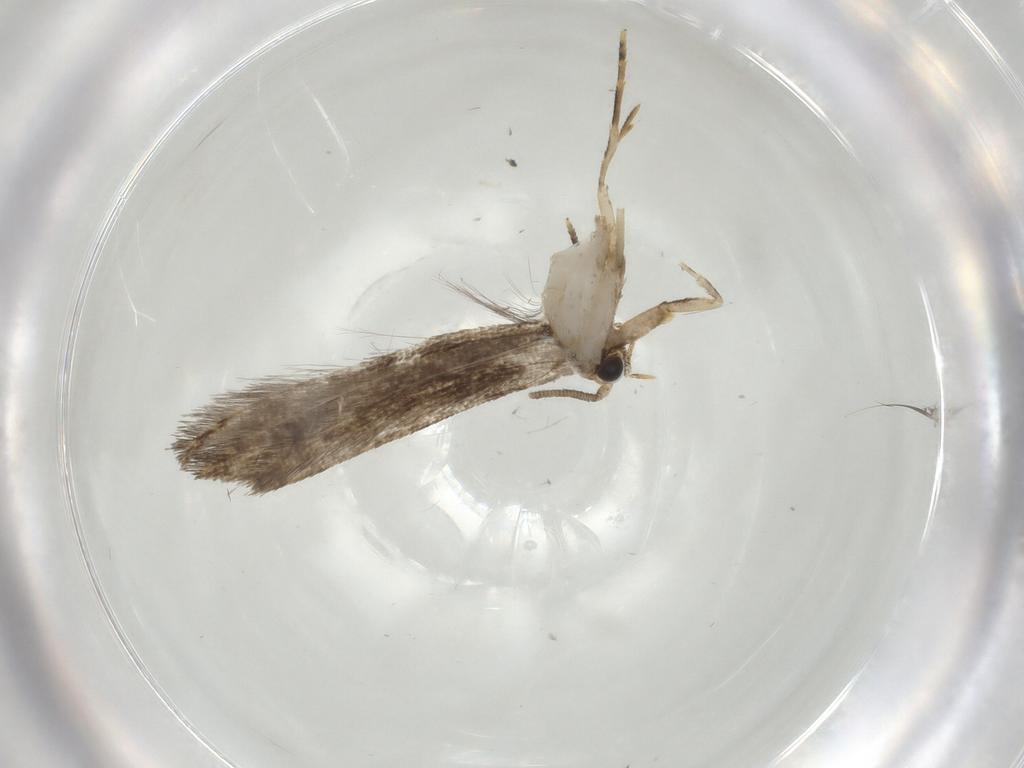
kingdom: Animalia
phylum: Arthropoda
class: Insecta
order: Lepidoptera
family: Tineidae
